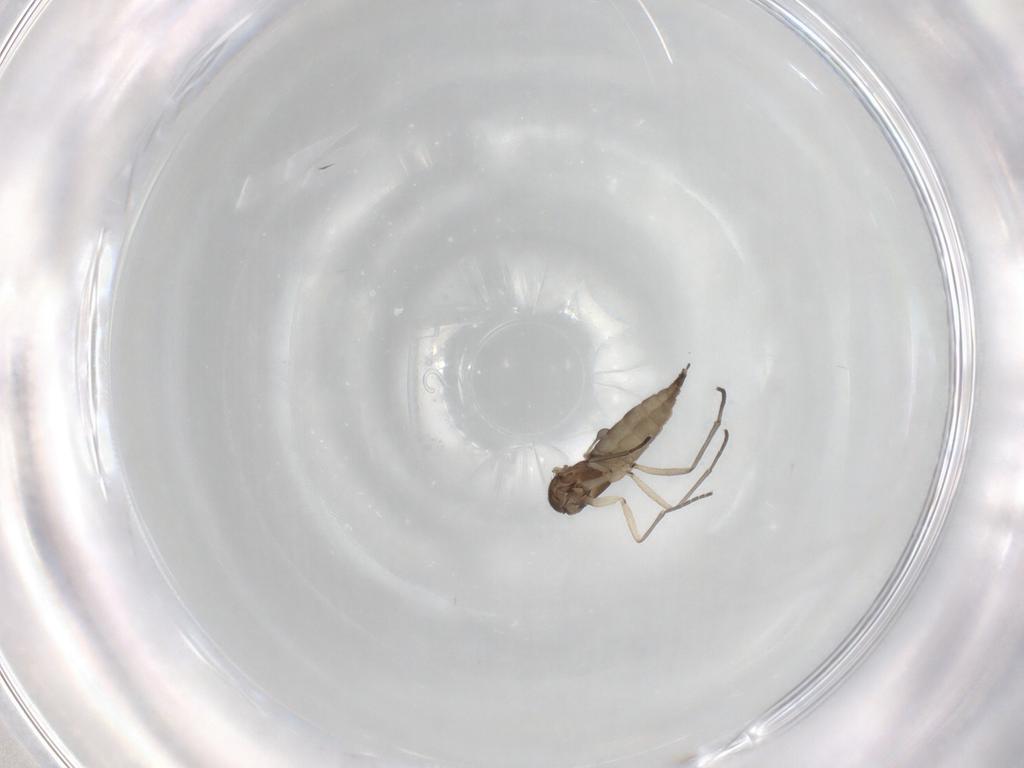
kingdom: Animalia
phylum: Arthropoda
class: Insecta
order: Diptera
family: Sciaridae
